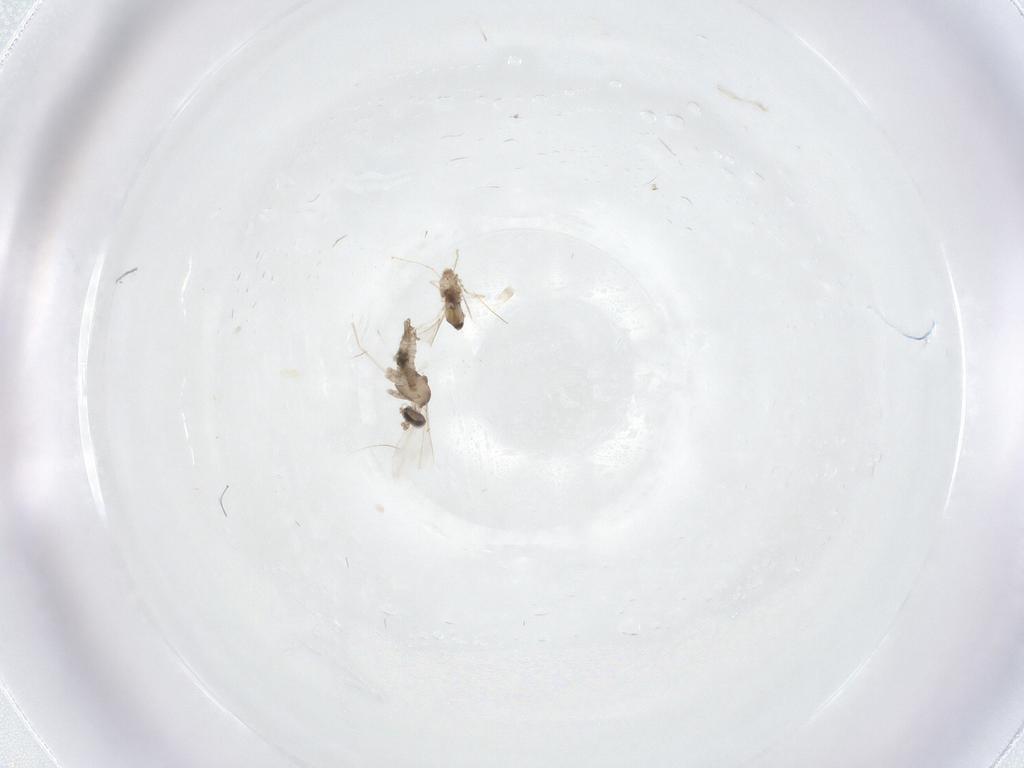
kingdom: Animalia
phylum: Arthropoda
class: Insecta
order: Diptera
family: Cecidomyiidae
